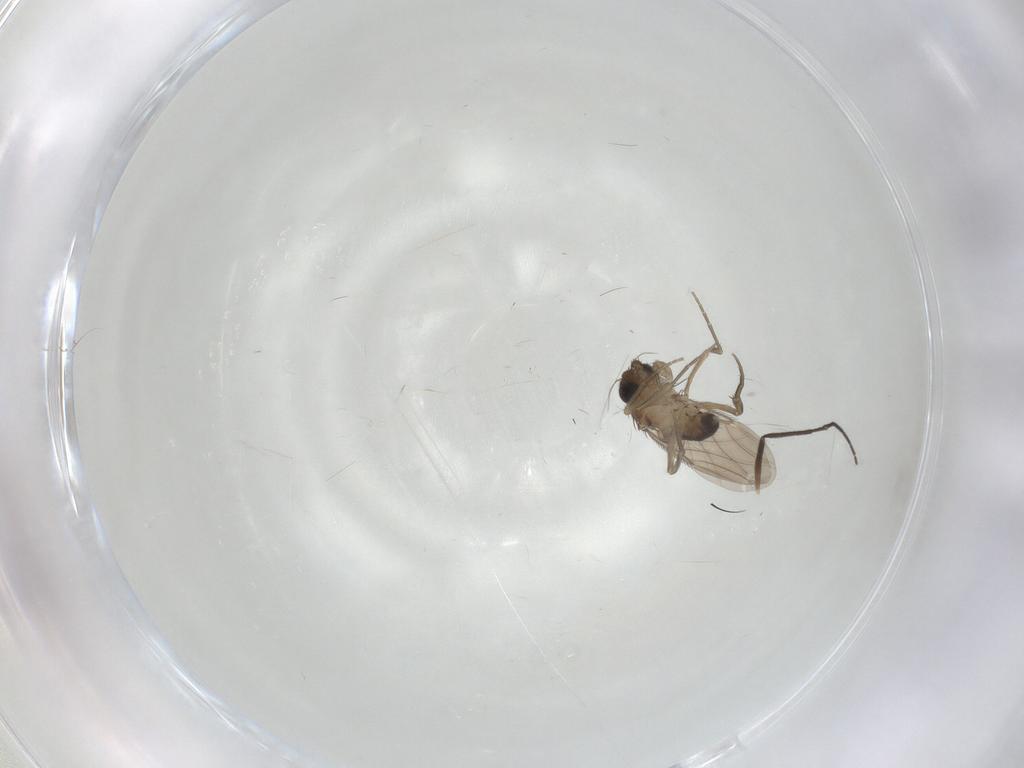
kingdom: Animalia
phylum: Arthropoda
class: Insecta
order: Diptera
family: Phoridae
